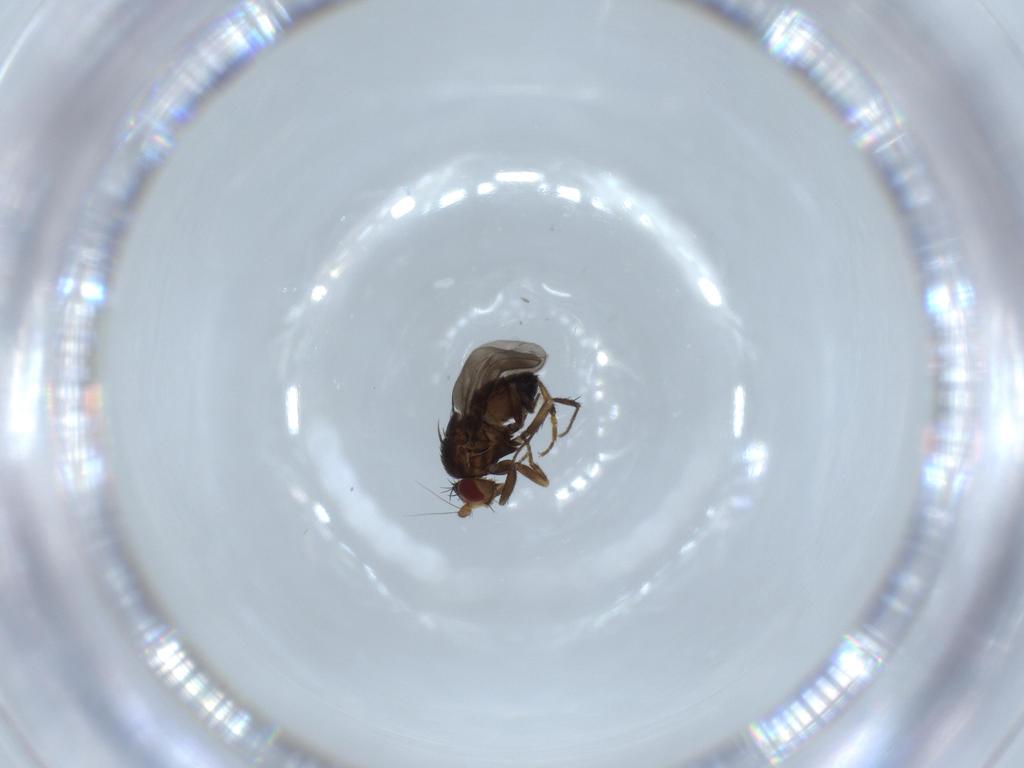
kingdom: Animalia
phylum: Arthropoda
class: Insecta
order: Diptera
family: Sphaeroceridae
